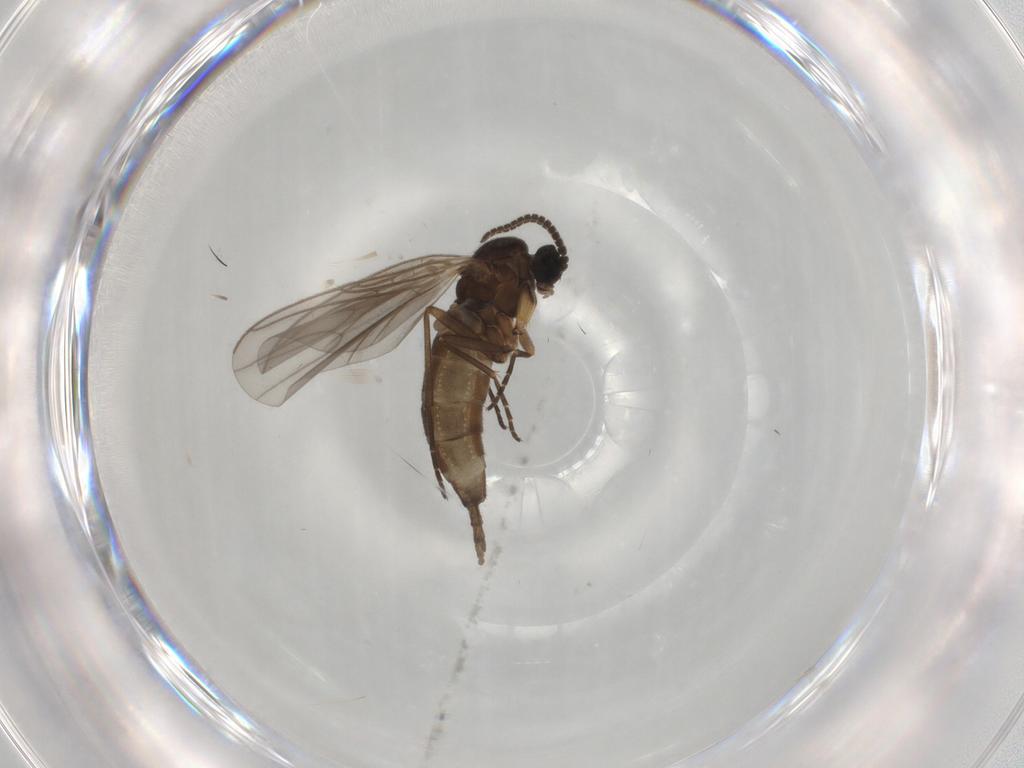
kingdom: Animalia
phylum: Arthropoda
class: Insecta
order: Diptera
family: Sciaridae
